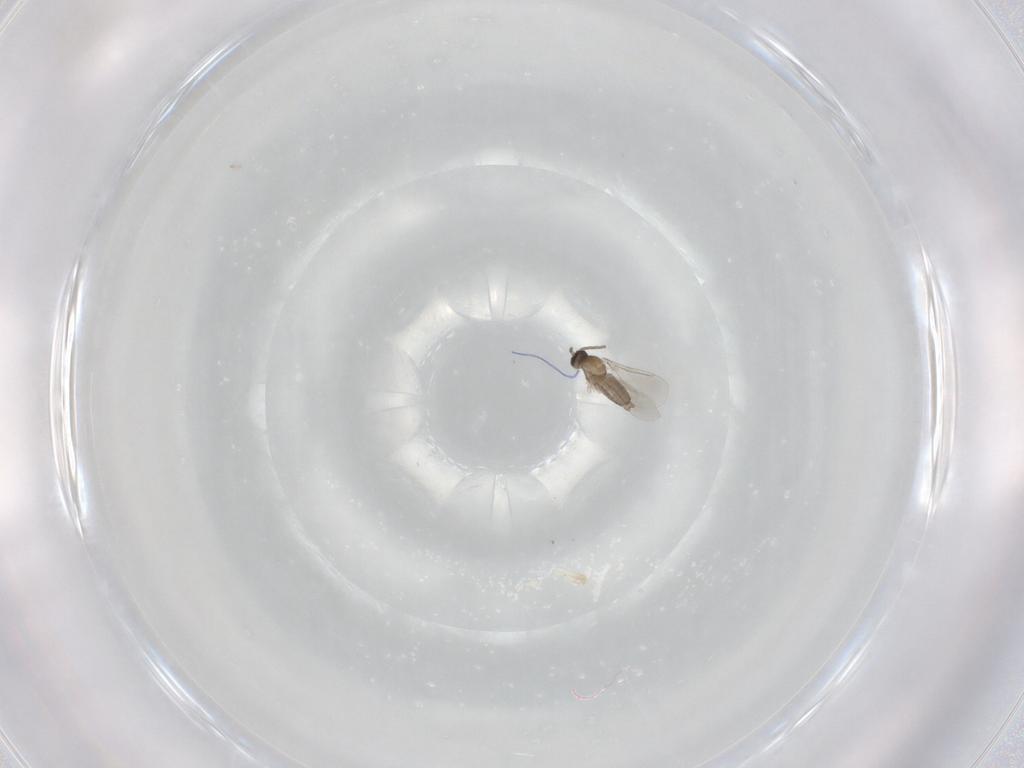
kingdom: Animalia
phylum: Arthropoda
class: Insecta
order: Diptera
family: Cecidomyiidae
